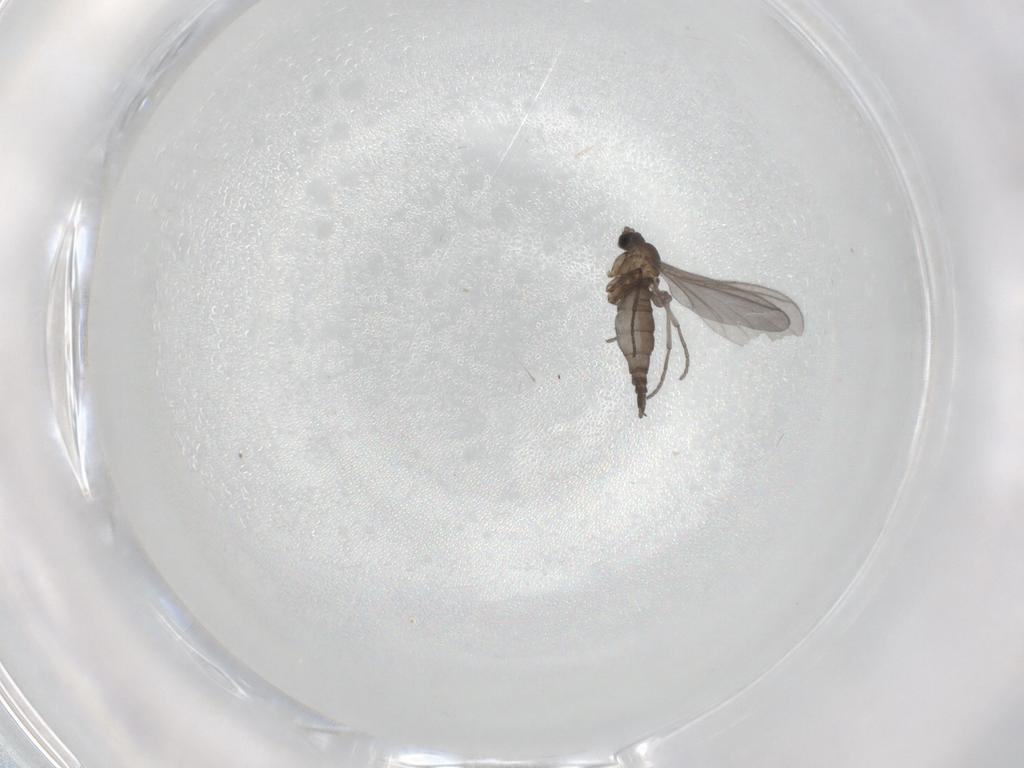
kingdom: Animalia
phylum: Arthropoda
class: Insecta
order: Diptera
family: Sciaridae
